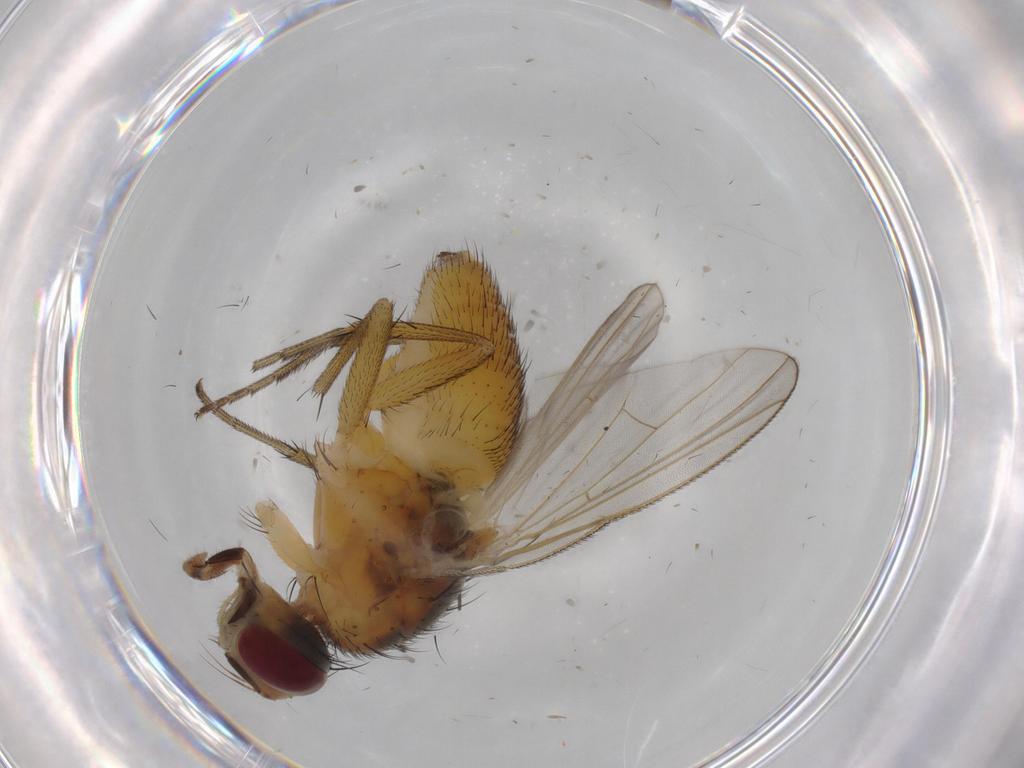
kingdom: Animalia
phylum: Arthropoda
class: Insecta
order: Diptera
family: Muscidae
